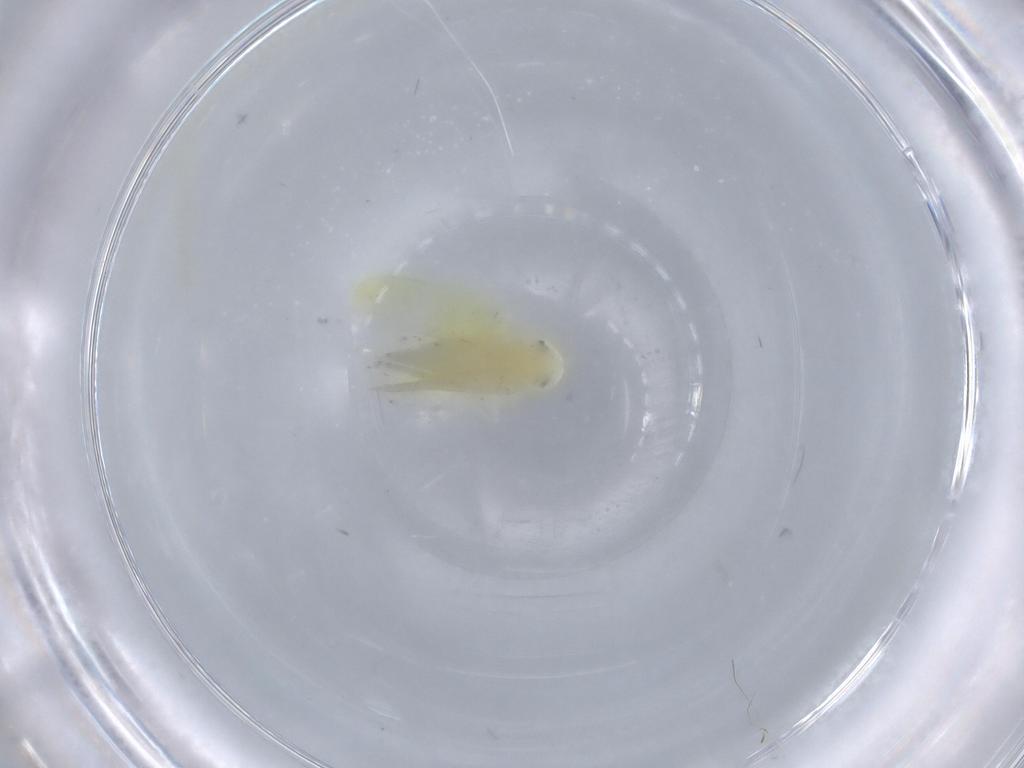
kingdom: Animalia
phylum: Arthropoda
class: Insecta
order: Hemiptera
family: Cicadellidae
